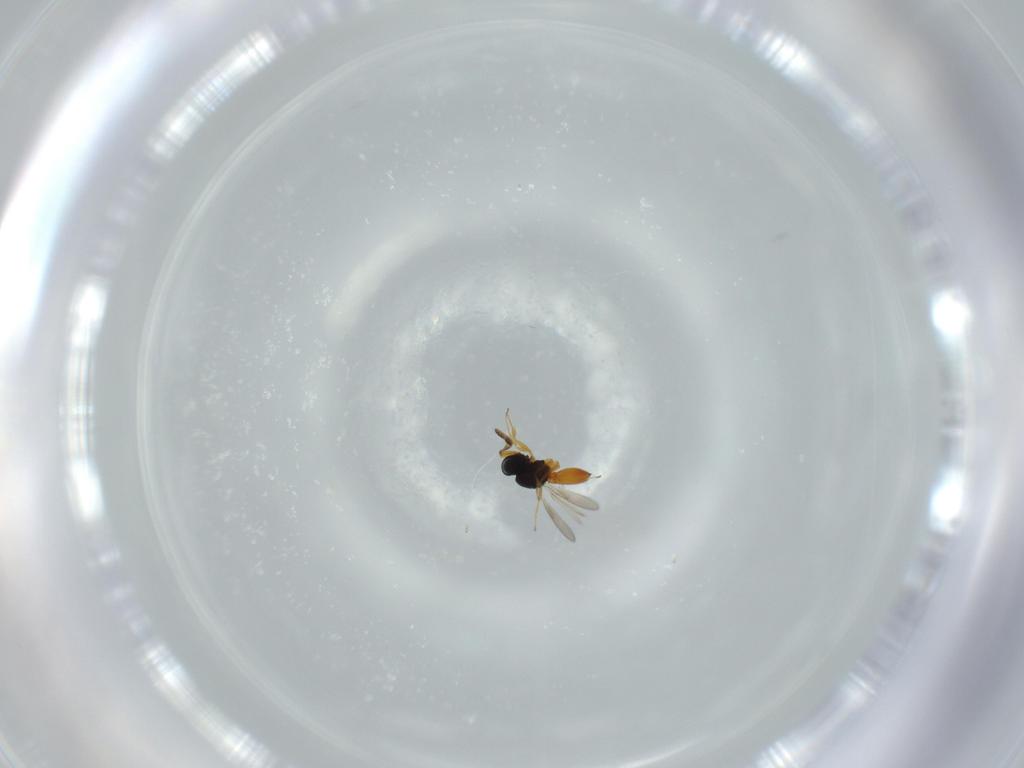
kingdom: Animalia
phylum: Arthropoda
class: Insecta
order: Hymenoptera
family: Scelionidae
